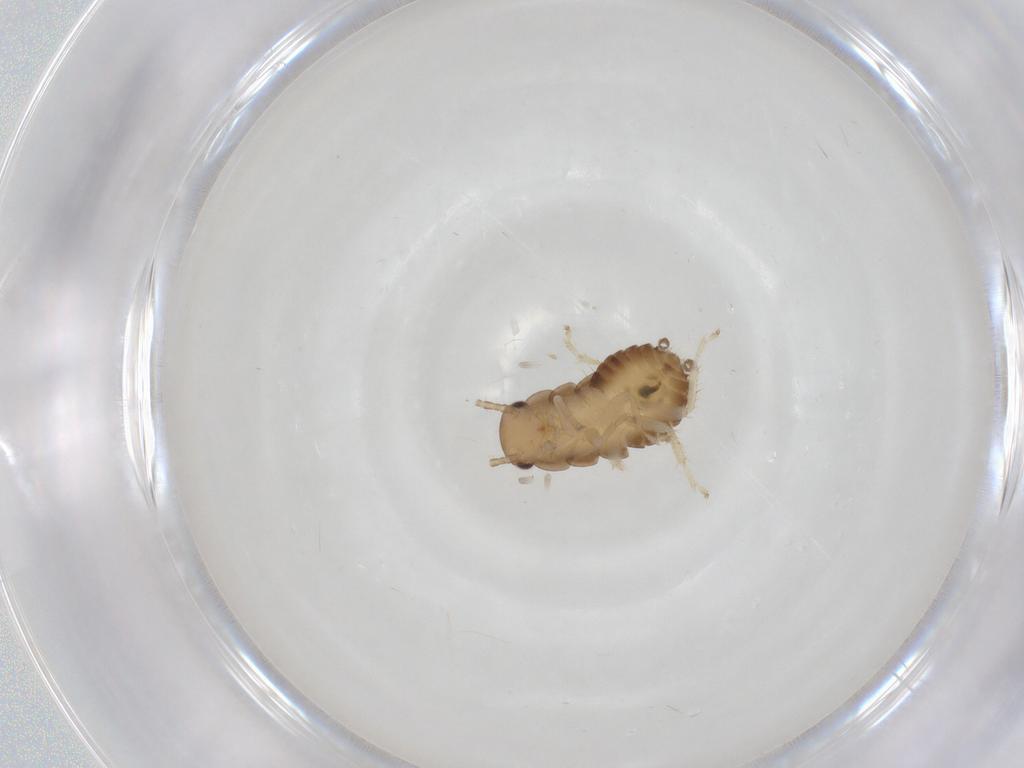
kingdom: Animalia
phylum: Arthropoda
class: Insecta
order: Blattodea
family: Ectobiidae
